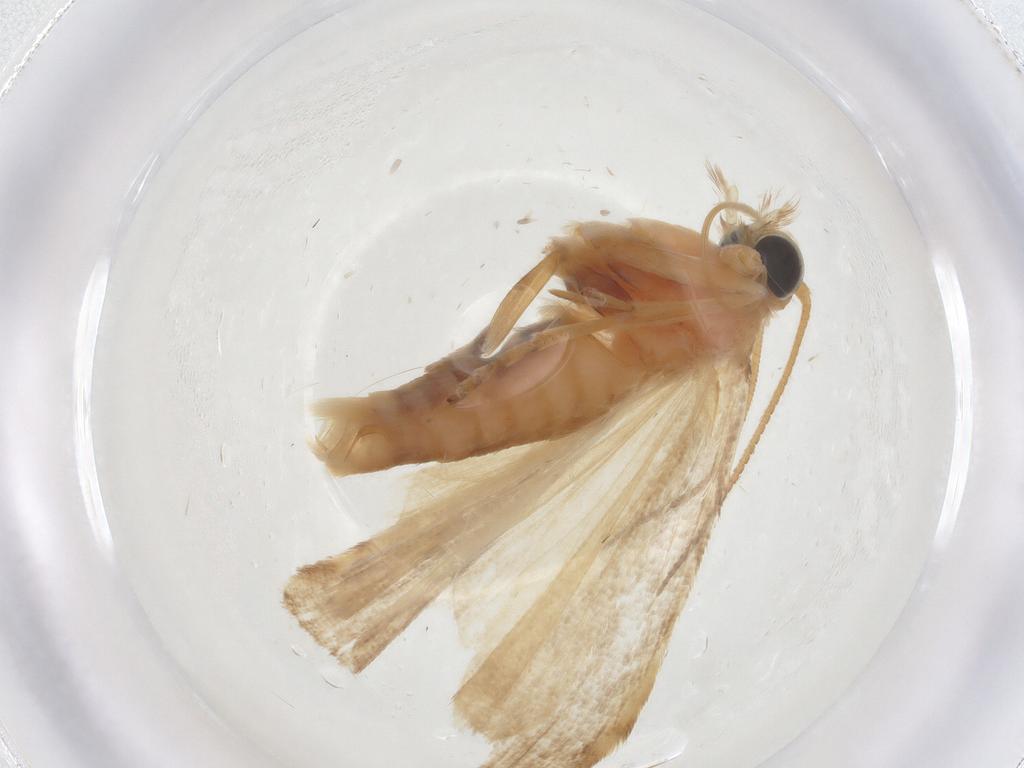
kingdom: Animalia
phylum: Arthropoda
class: Insecta
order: Lepidoptera
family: Pyralidae
